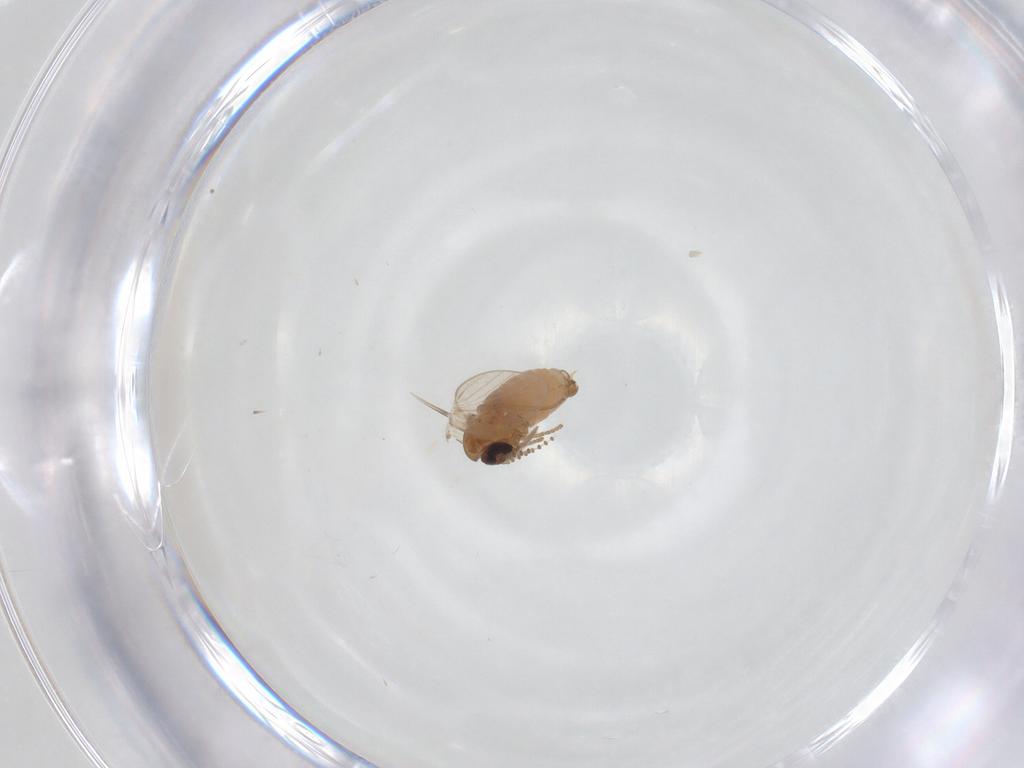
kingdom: Animalia
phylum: Arthropoda
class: Insecta
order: Diptera
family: Psychodidae
